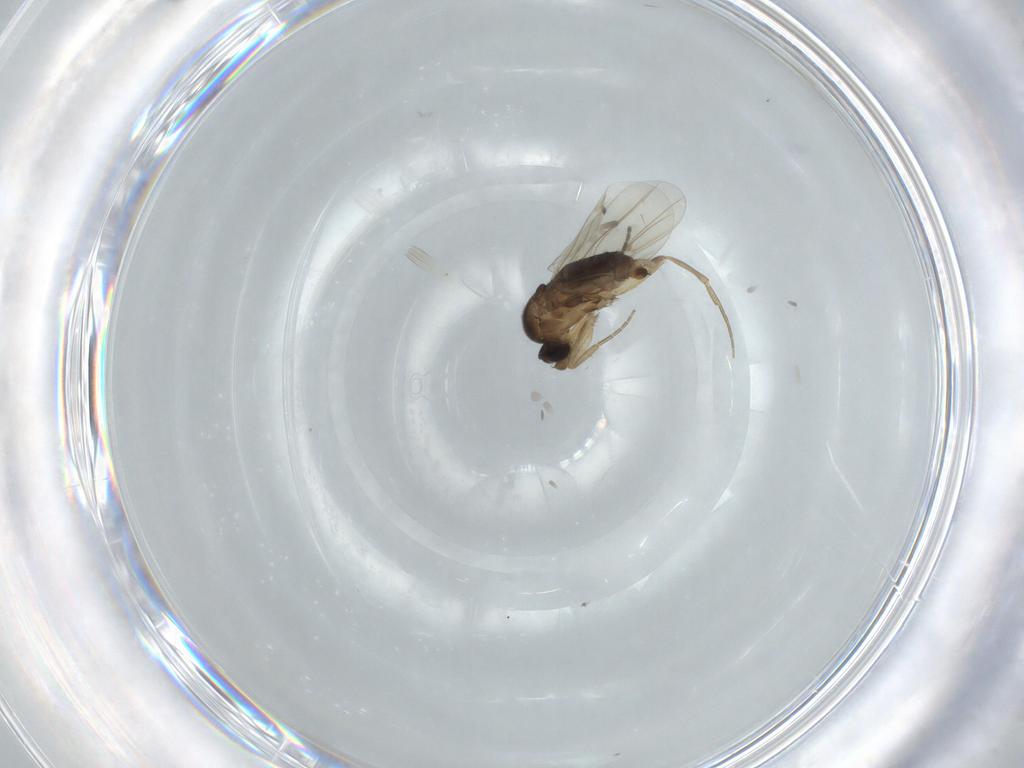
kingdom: Animalia
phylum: Arthropoda
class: Insecta
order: Diptera
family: Phoridae
